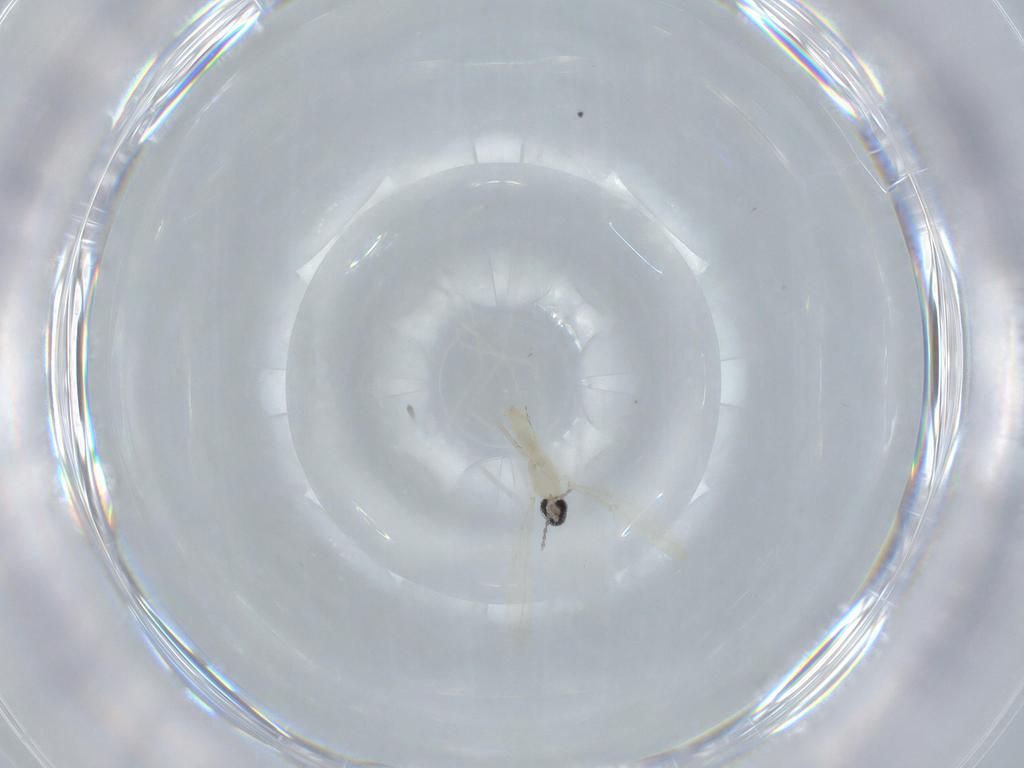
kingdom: Animalia
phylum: Arthropoda
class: Insecta
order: Diptera
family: Cecidomyiidae
